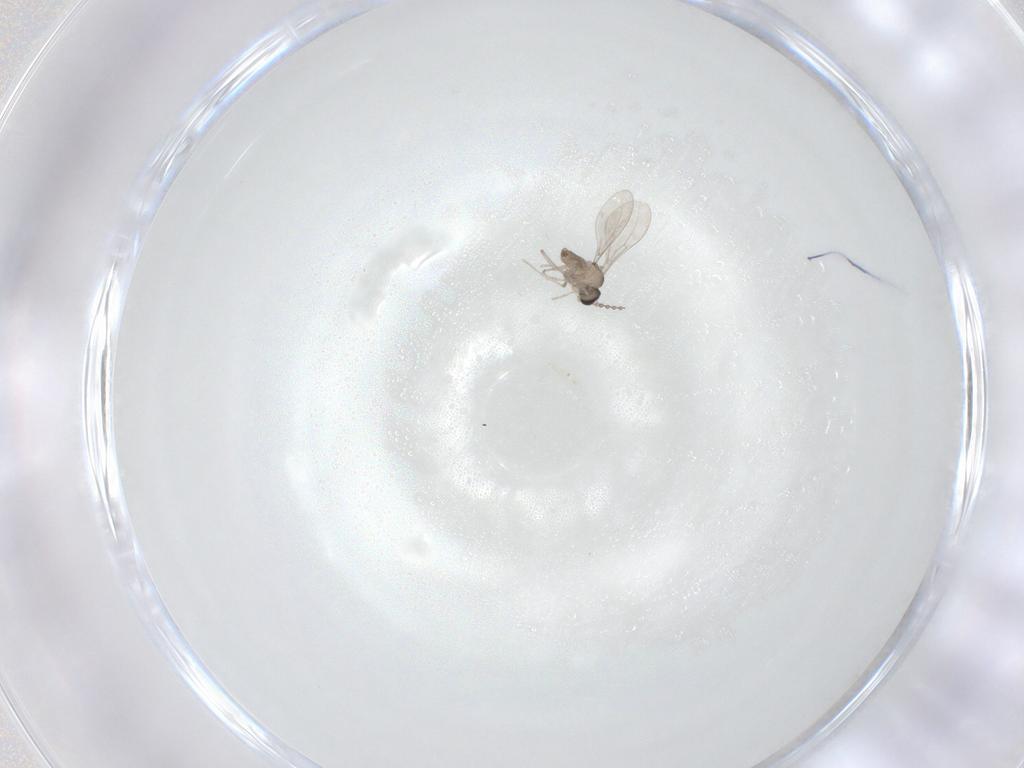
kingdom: Animalia
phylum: Arthropoda
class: Insecta
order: Diptera
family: Cecidomyiidae
